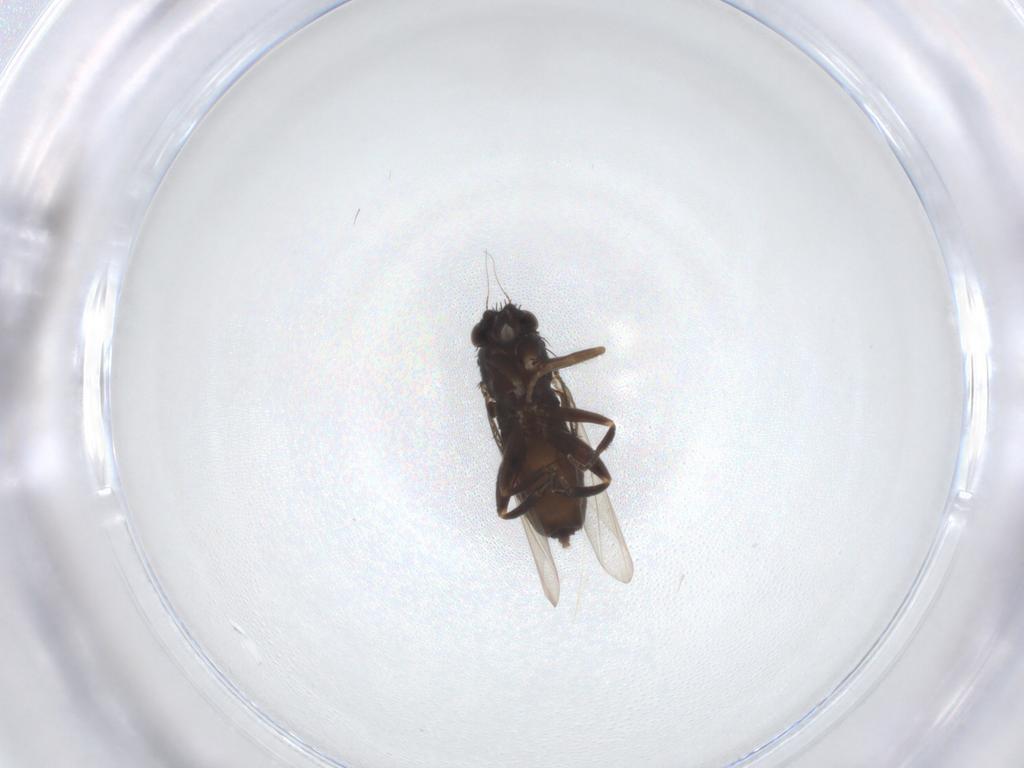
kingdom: Animalia
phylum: Arthropoda
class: Insecta
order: Diptera
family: Phoridae
